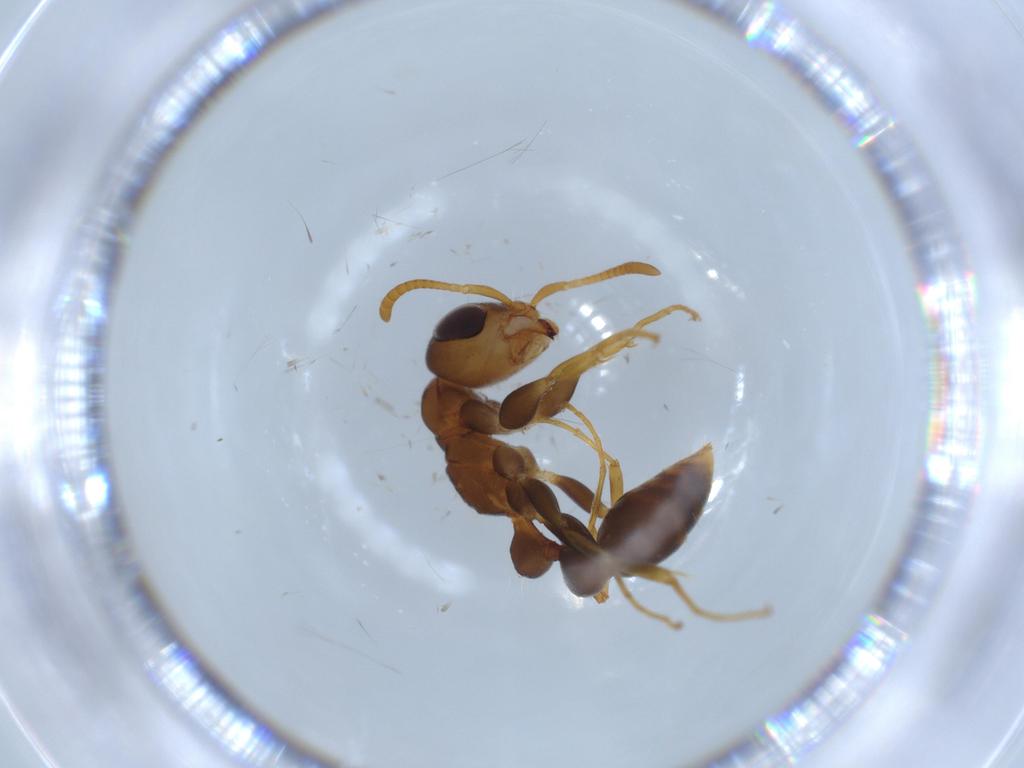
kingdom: Animalia
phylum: Arthropoda
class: Insecta
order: Hymenoptera
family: Formicidae
